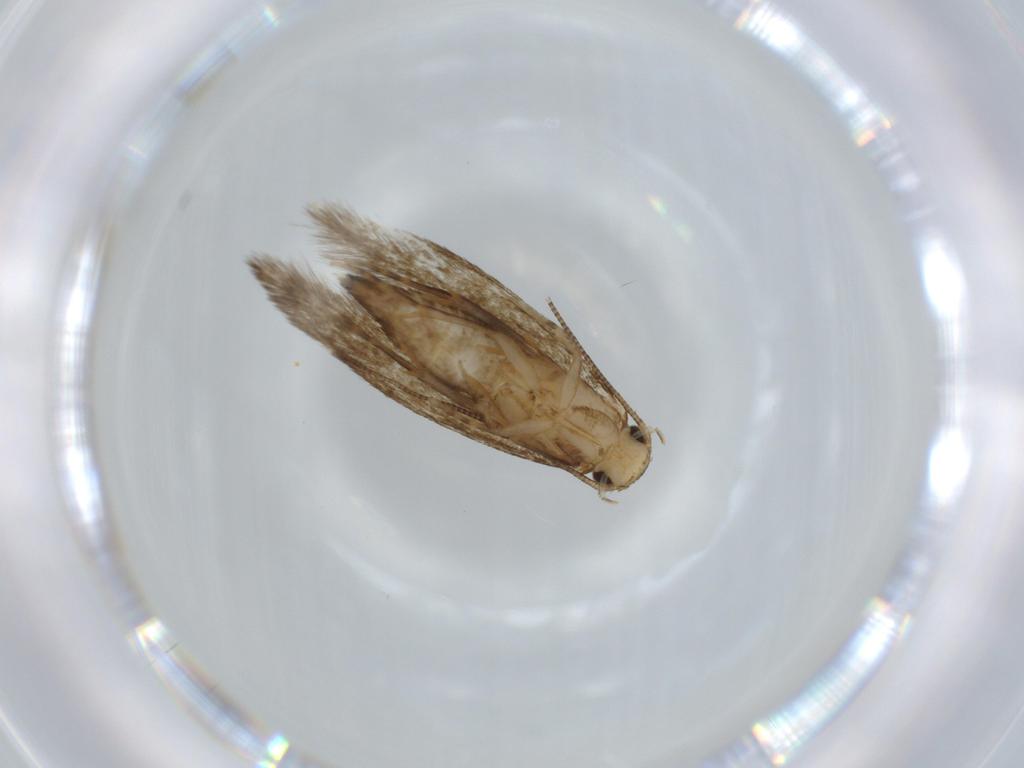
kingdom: Animalia
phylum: Arthropoda
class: Insecta
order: Lepidoptera
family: Tineidae
